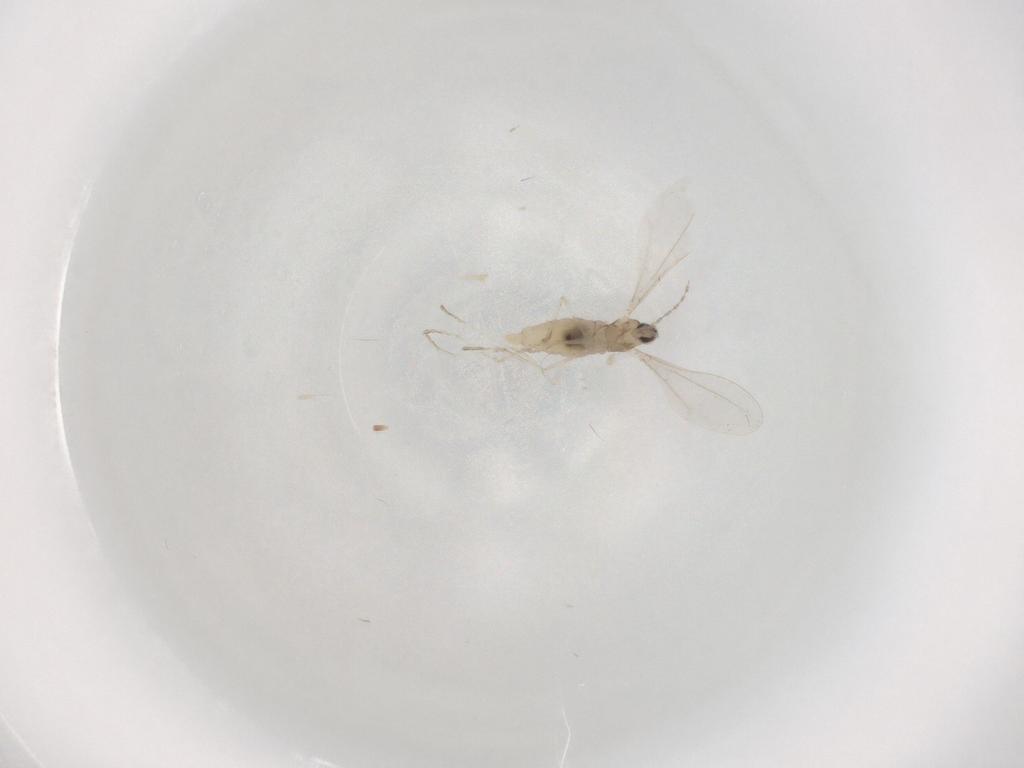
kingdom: Animalia
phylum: Arthropoda
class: Insecta
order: Diptera
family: Cecidomyiidae
